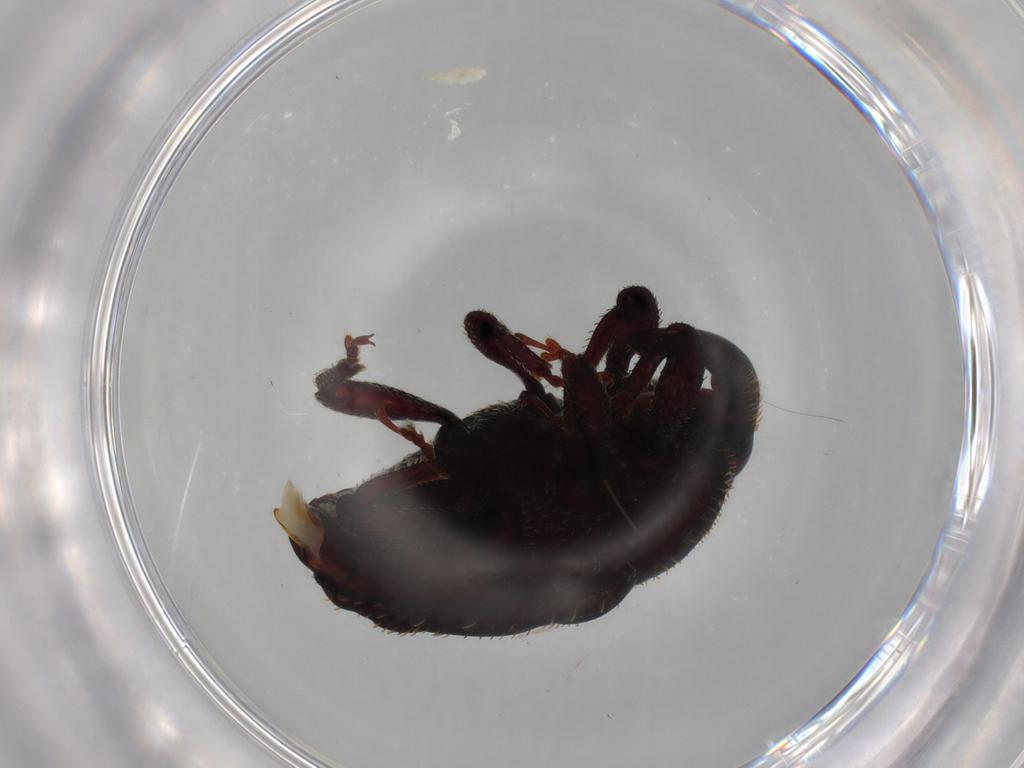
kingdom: Animalia
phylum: Arthropoda
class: Insecta
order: Coleoptera
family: Curculionidae
